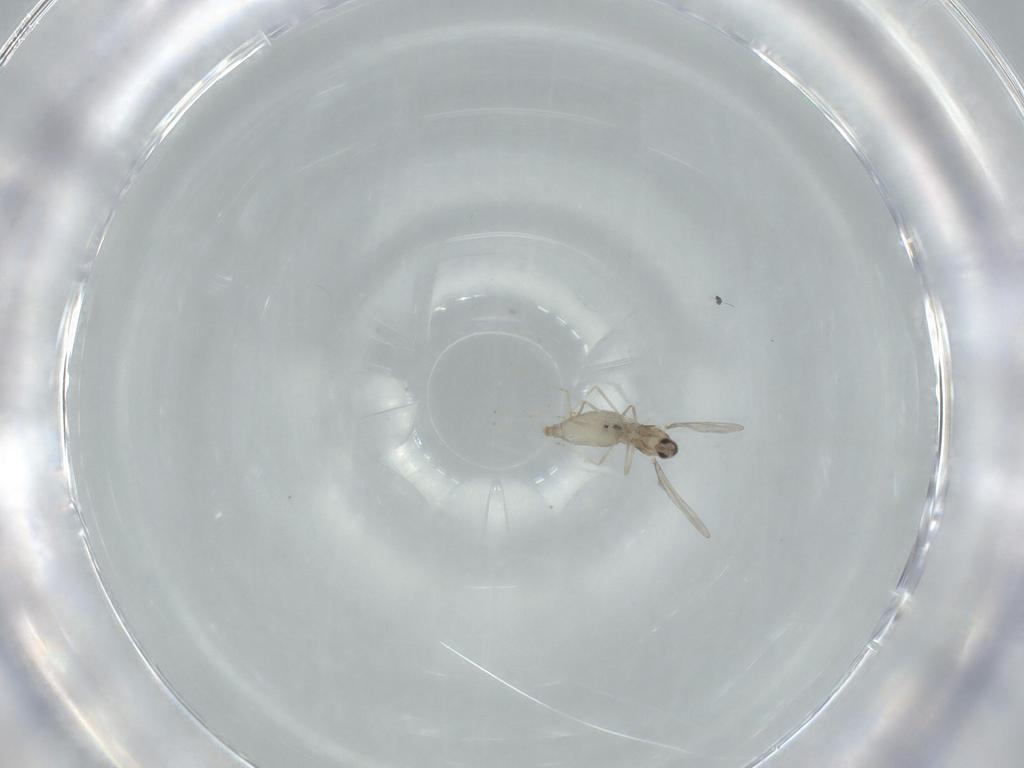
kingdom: Animalia
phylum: Arthropoda
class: Insecta
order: Diptera
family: Cecidomyiidae
